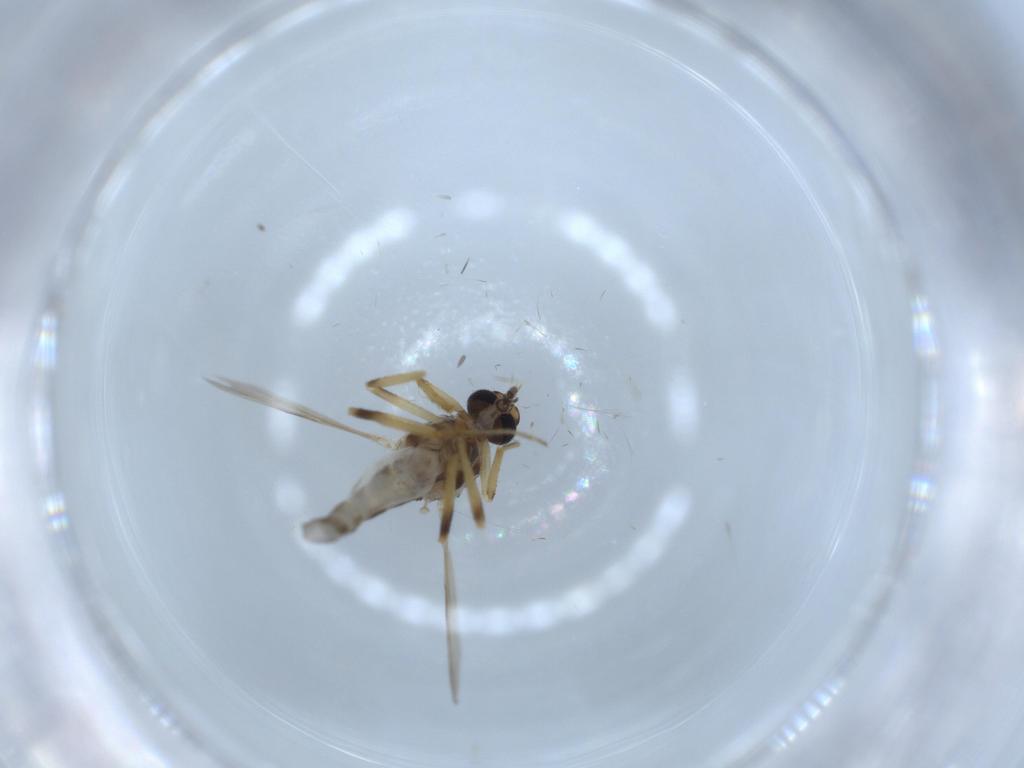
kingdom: Animalia
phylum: Arthropoda
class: Insecta
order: Diptera
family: Ceratopogonidae
